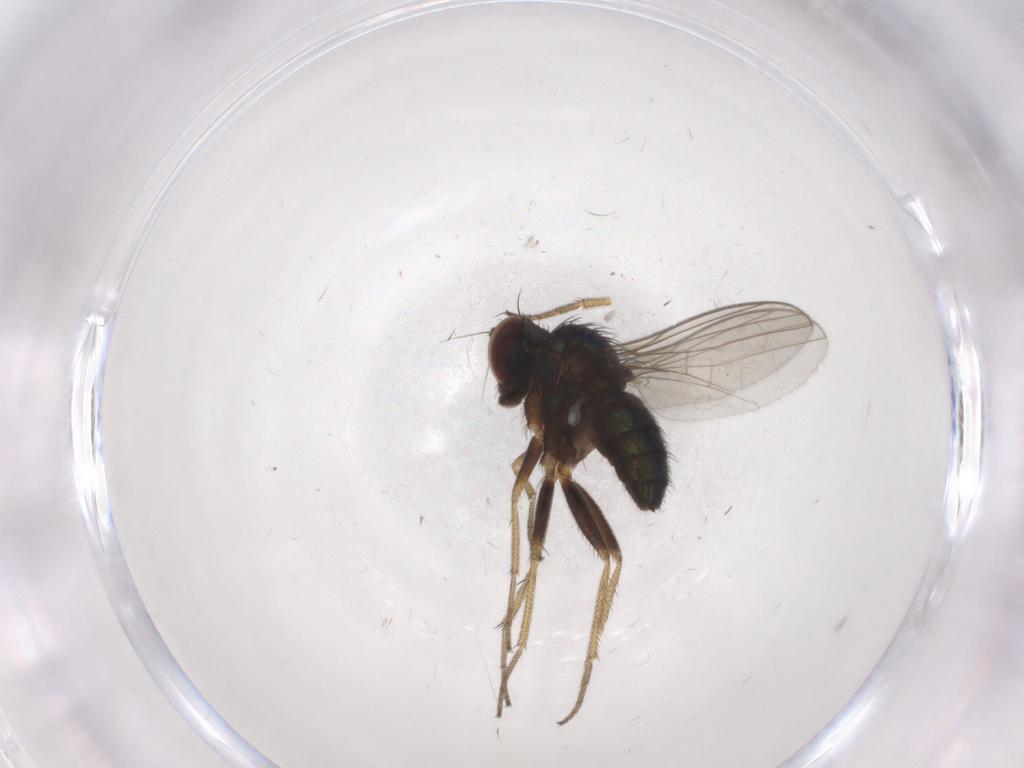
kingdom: Animalia
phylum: Arthropoda
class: Insecta
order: Diptera
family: Dolichopodidae
